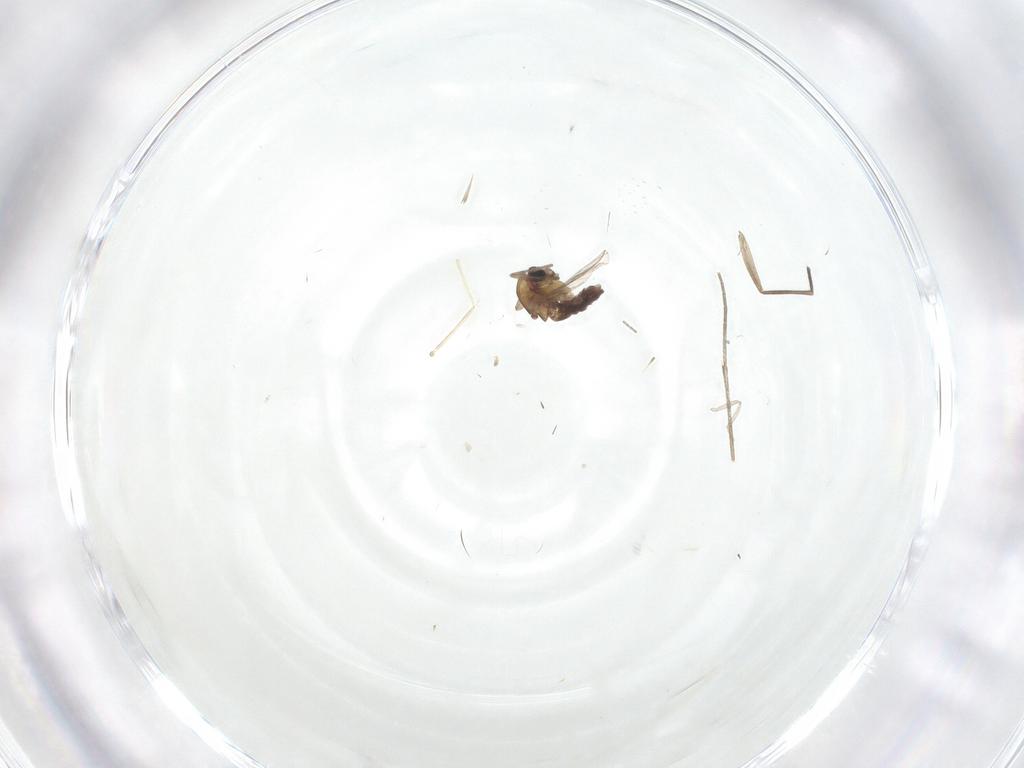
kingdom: Animalia
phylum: Arthropoda
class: Insecta
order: Diptera
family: Chironomidae
